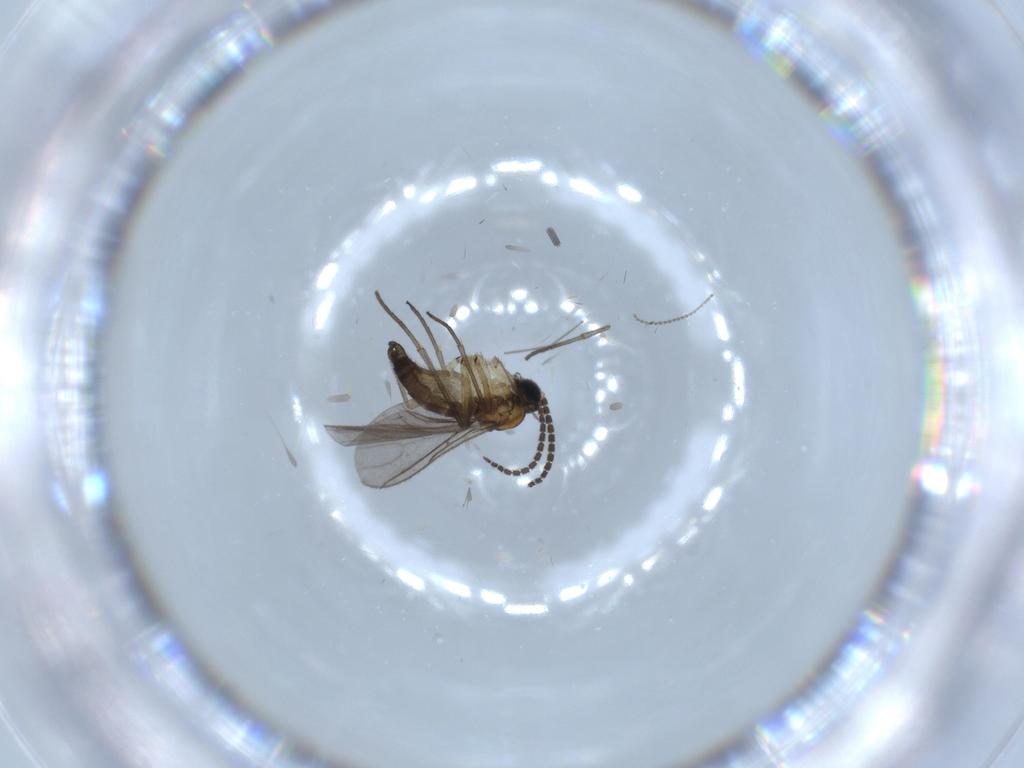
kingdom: Animalia
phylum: Arthropoda
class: Insecta
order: Diptera
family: Sciaridae
